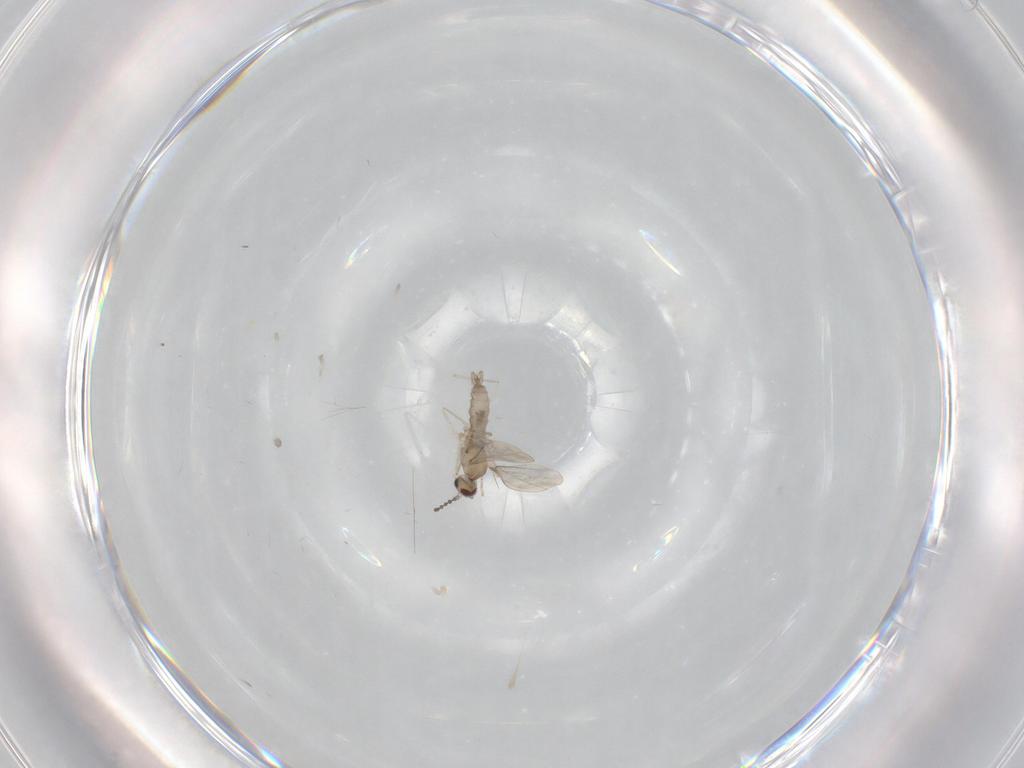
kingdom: Animalia
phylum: Arthropoda
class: Insecta
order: Diptera
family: Cecidomyiidae
